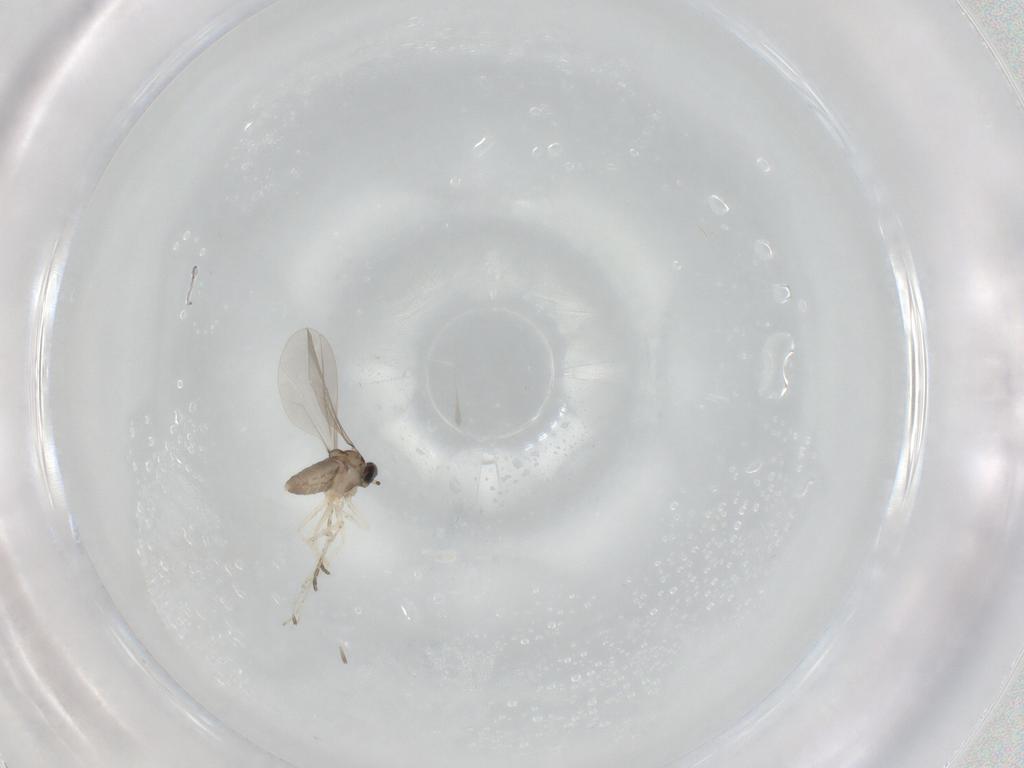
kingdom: Animalia
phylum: Arthropoda
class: Insecta
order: Diptera
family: Cecidomyiidae
